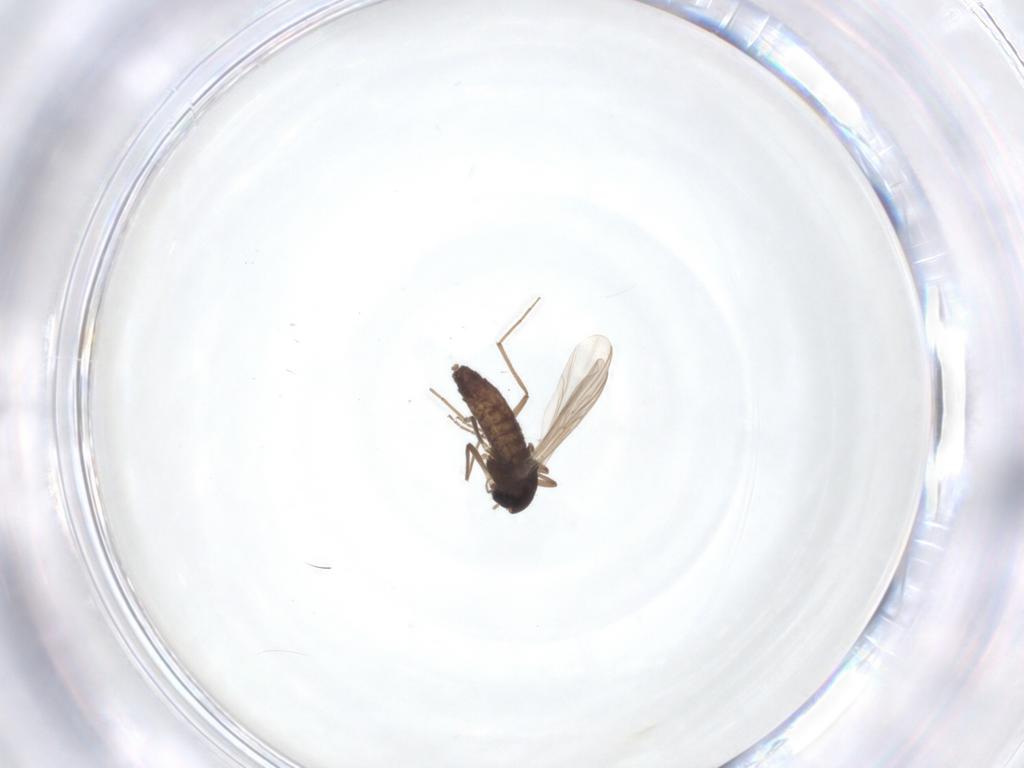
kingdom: Animalia
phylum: Arthropoda
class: Insecta
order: Diptera
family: Chironomidae
